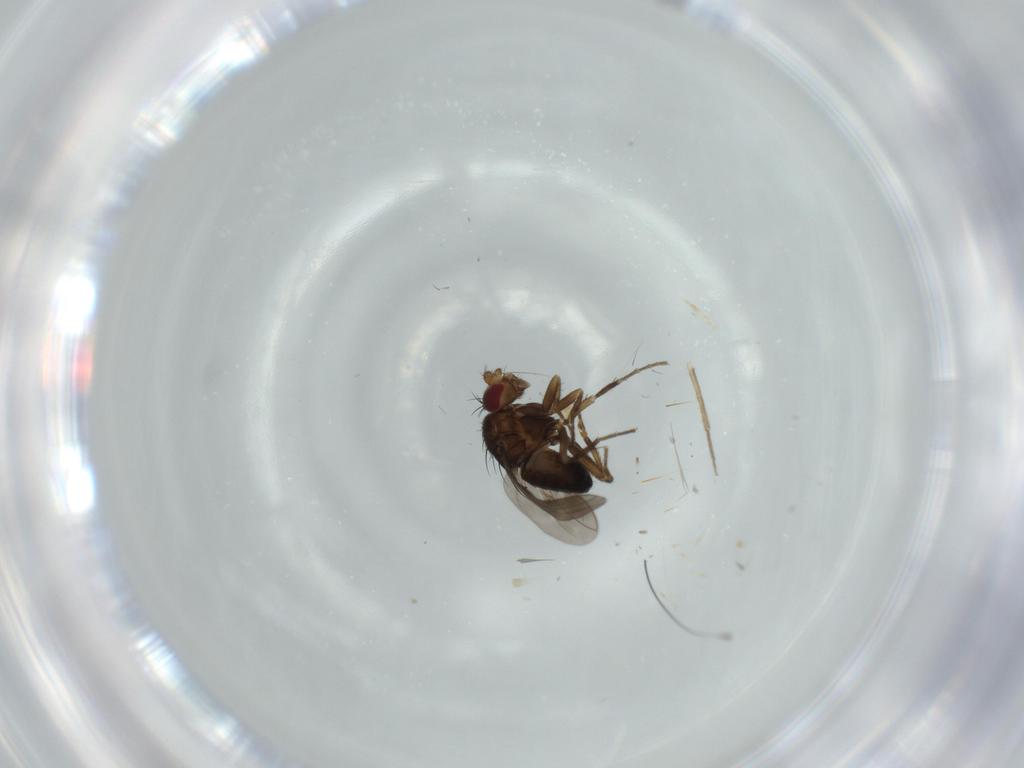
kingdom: Animalia
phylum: Arthropoda
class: Insecta
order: Diptera
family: Sphaeroceridae
